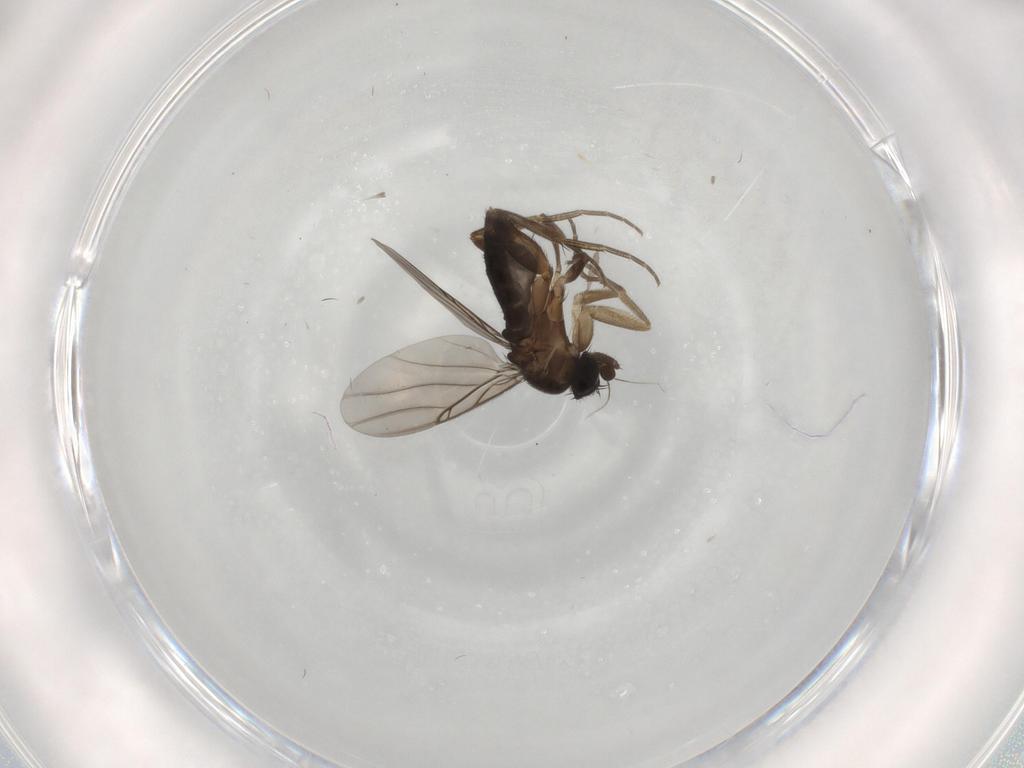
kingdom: Animalia
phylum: Arthropoda
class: Insecta
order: Diptera
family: Phoridae
